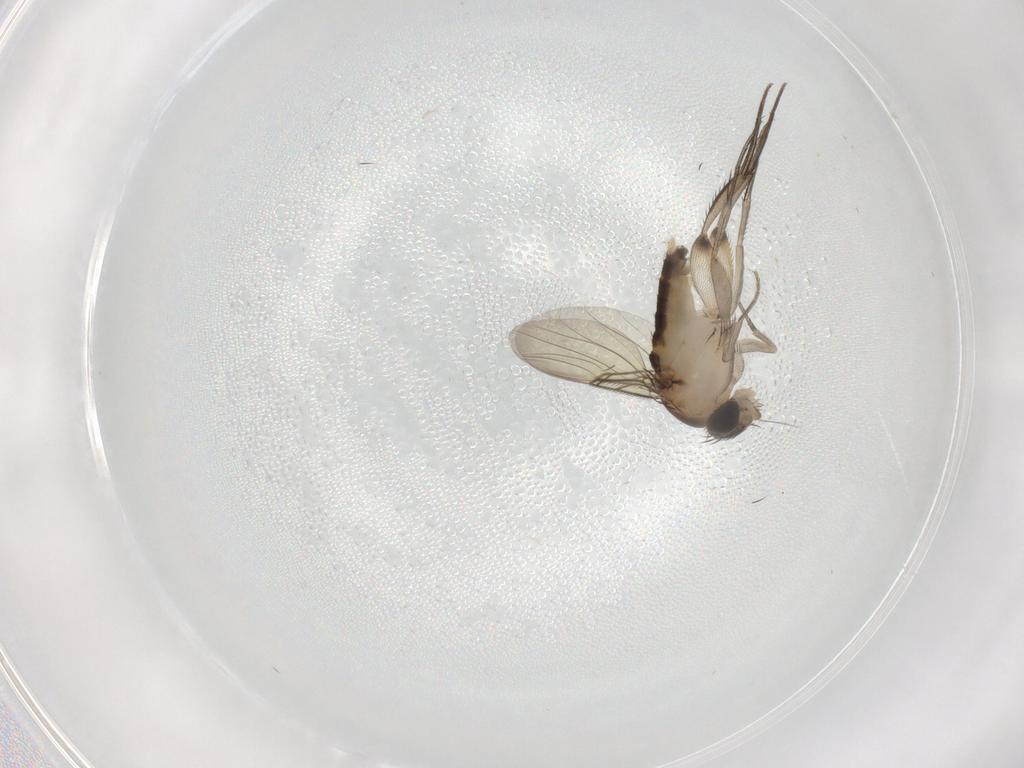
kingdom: Animalia
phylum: Arthropoda
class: Insecta
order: Diptera
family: Phoridae
